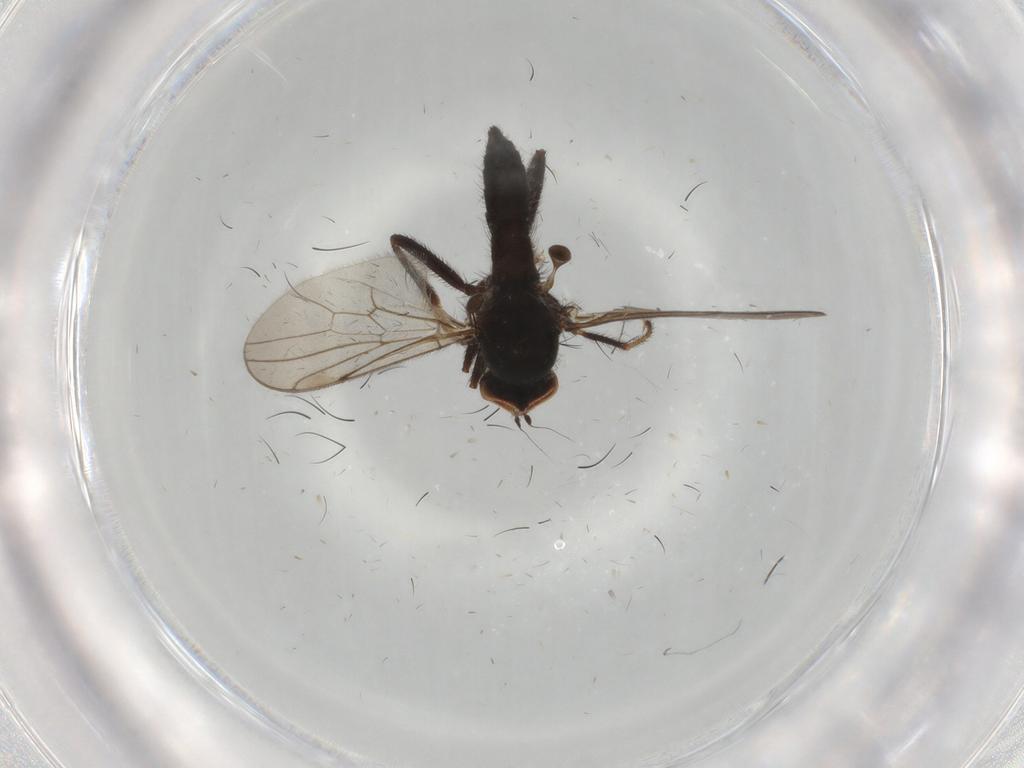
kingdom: Animalia
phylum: Arthropoda
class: Insecta
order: Diptera
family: Hybotidae
